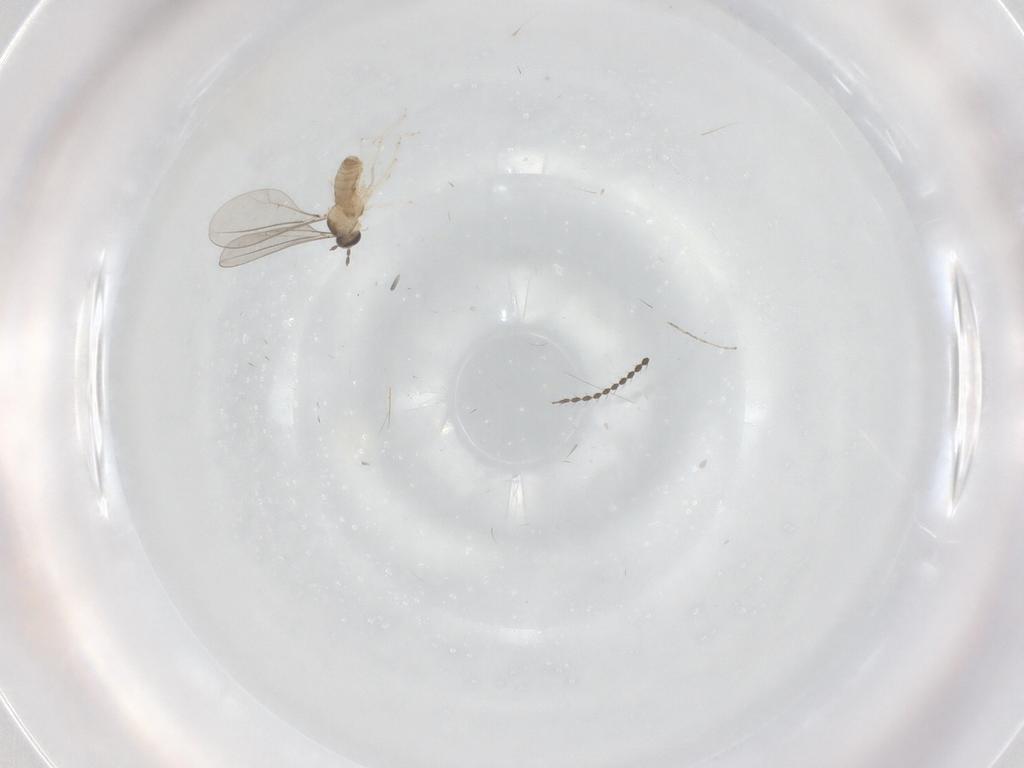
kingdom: Animalia
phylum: Arthropoda
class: Insecta
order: Diptera
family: Cecidomyiidae
